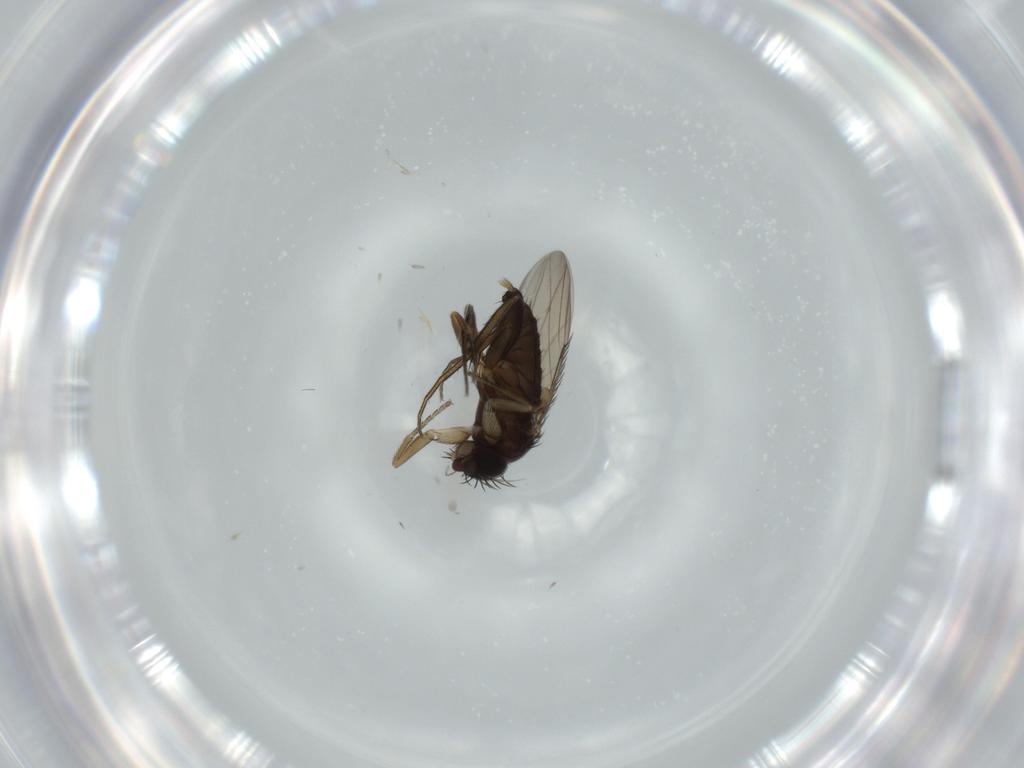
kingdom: Animalia
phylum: Arthropoda
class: Insecta
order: Diptera
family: Phoridae
